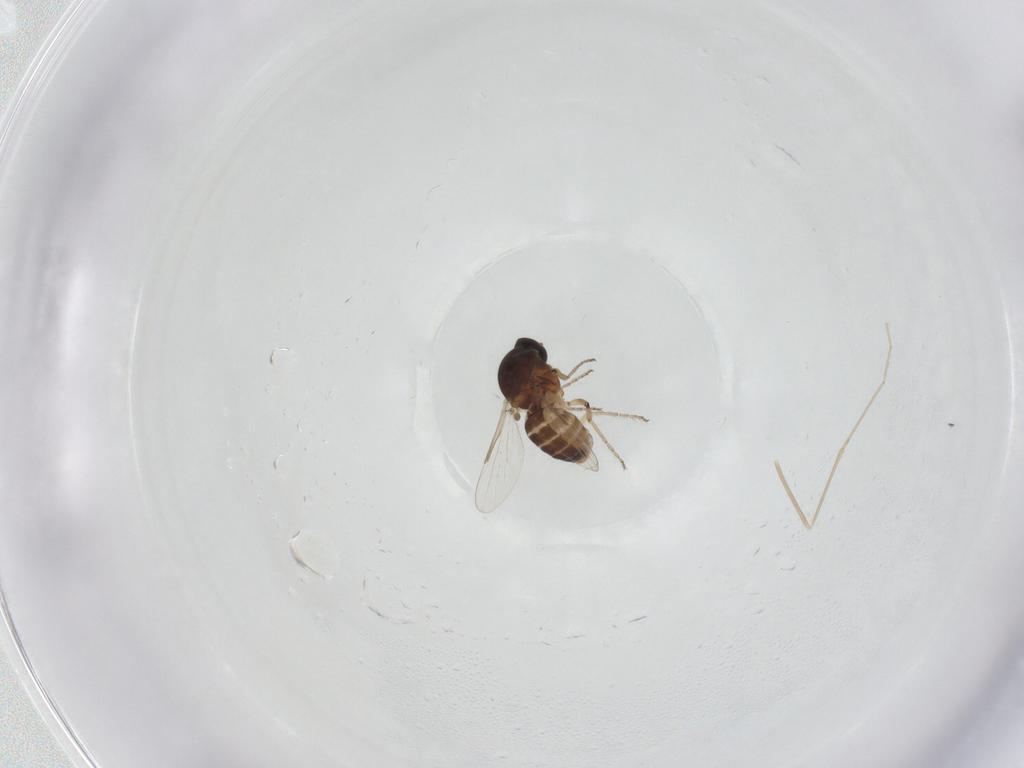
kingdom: Animalia
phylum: Arthropoda
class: Insecta
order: Diptera
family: Ceratopogonidae
